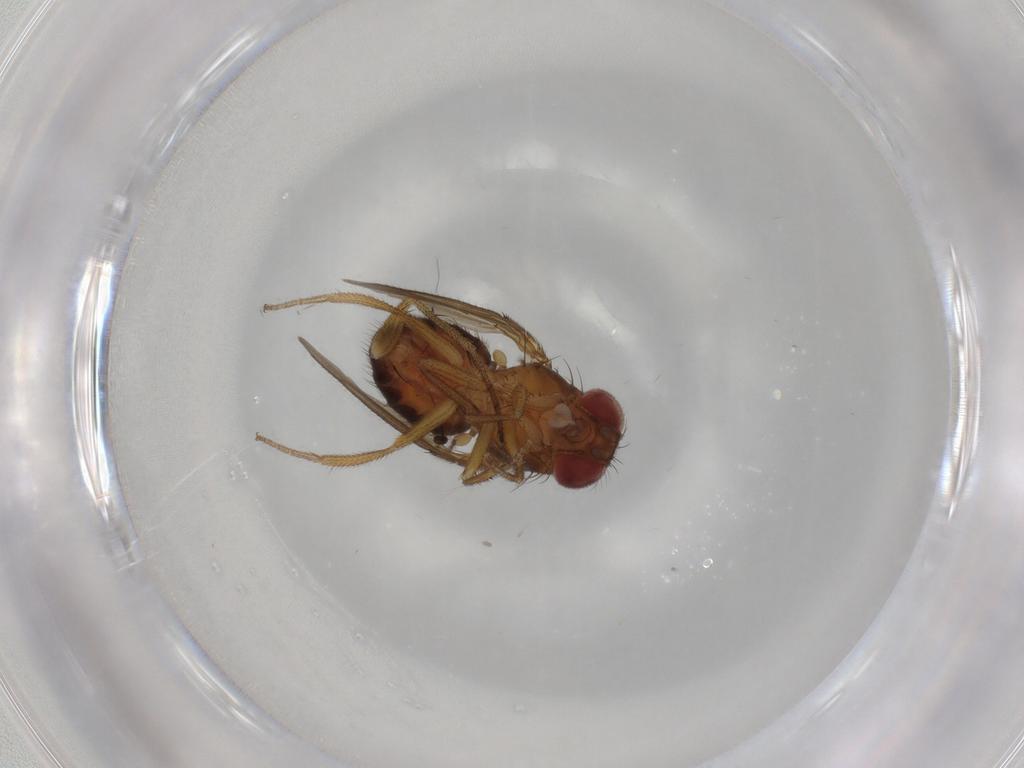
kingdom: Animalia
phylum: Arthropoda
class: Insecta
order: Diptera
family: Drosophilidae
